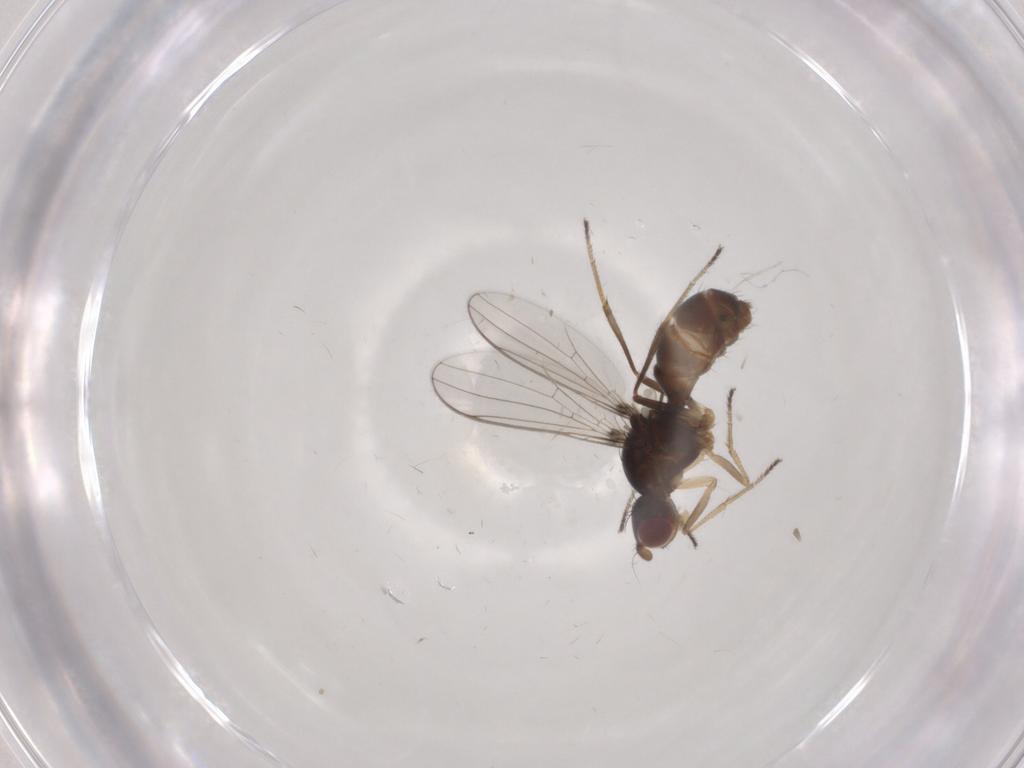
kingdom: Animalia
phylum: Arthropoda
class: Insecta
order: Diptera
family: Sepsidae
